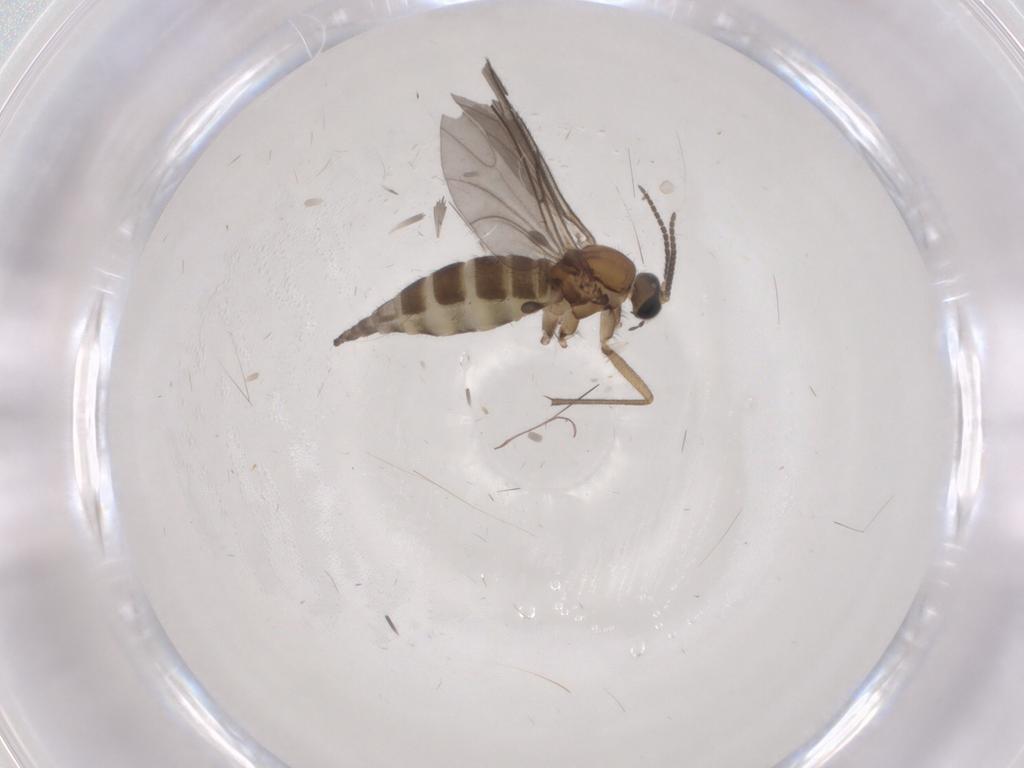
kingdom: Animalia
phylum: Arthropoda
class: Insecta
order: Diptera
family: Sciaridae
